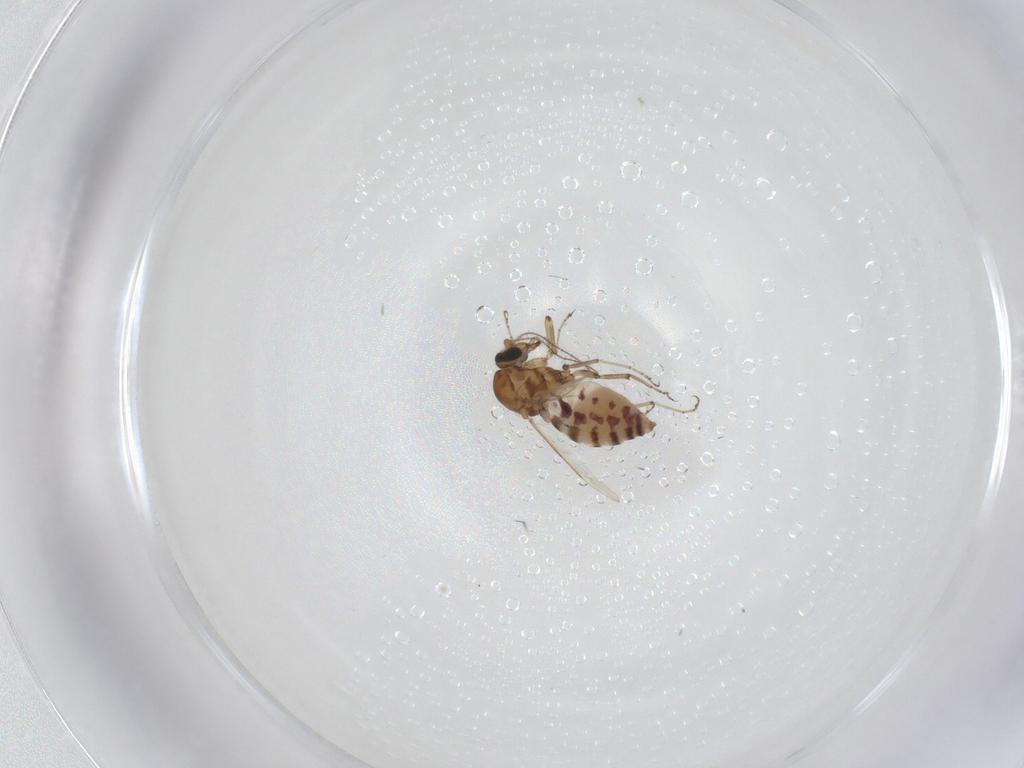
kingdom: Animalia
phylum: Arthropoda
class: Insecta
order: Diptera
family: Ceratopogonidae
